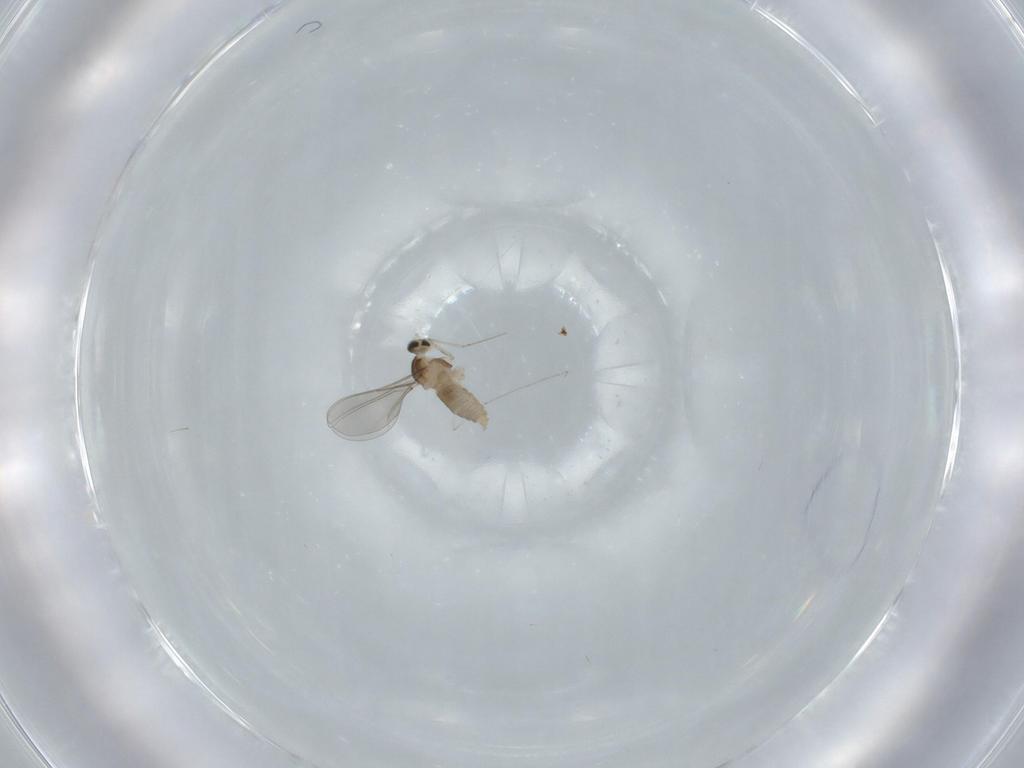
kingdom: Animalia
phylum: Arthropoda
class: Insecta
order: Diptera
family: Cecidomyiidae
